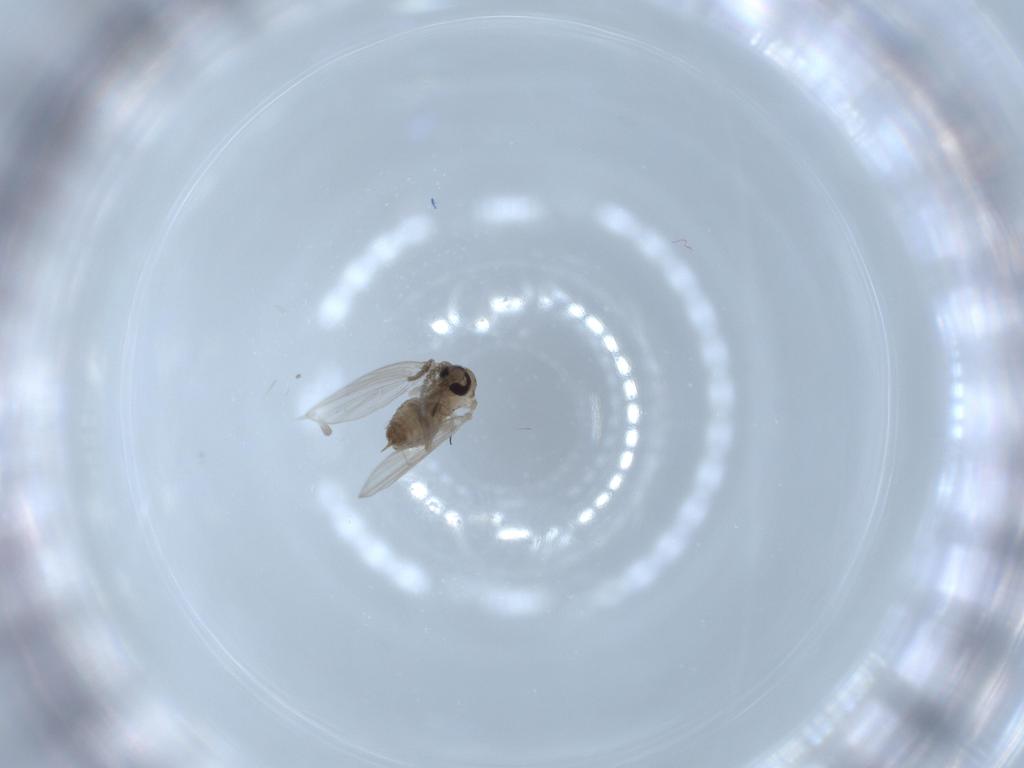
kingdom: Animalia
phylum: Arthropoda
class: Insecta
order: Diptera
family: Psychodidae
